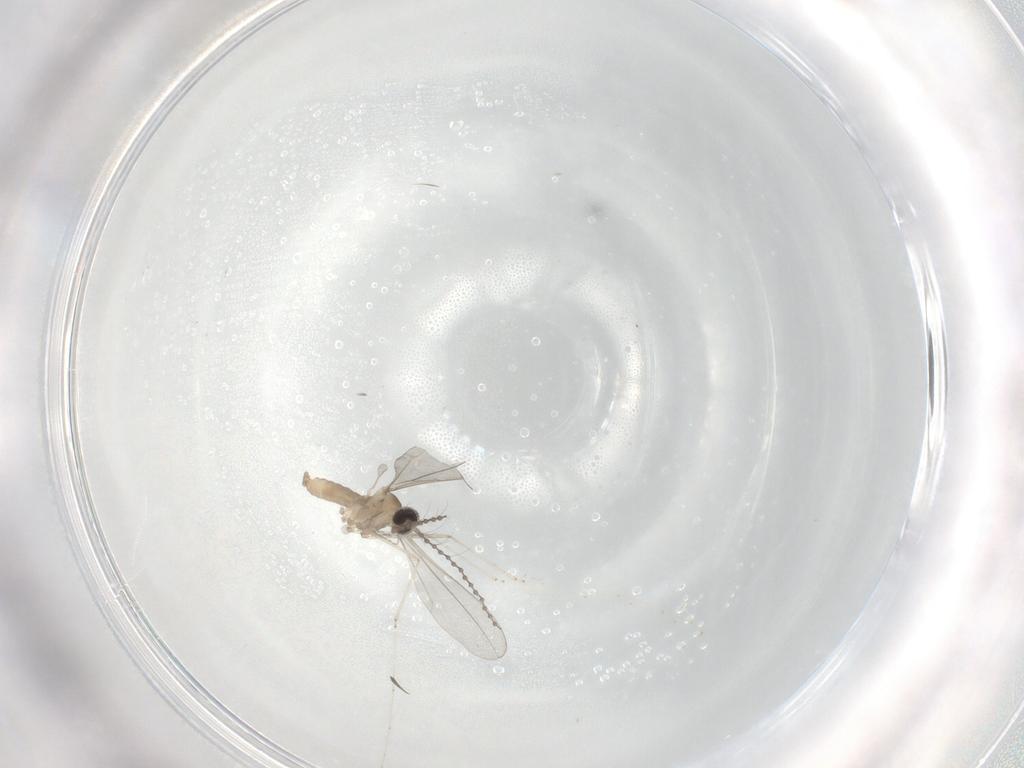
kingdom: Animalia
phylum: Arthropoda
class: Insecta
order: Diptera
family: Cecidomyiidae
